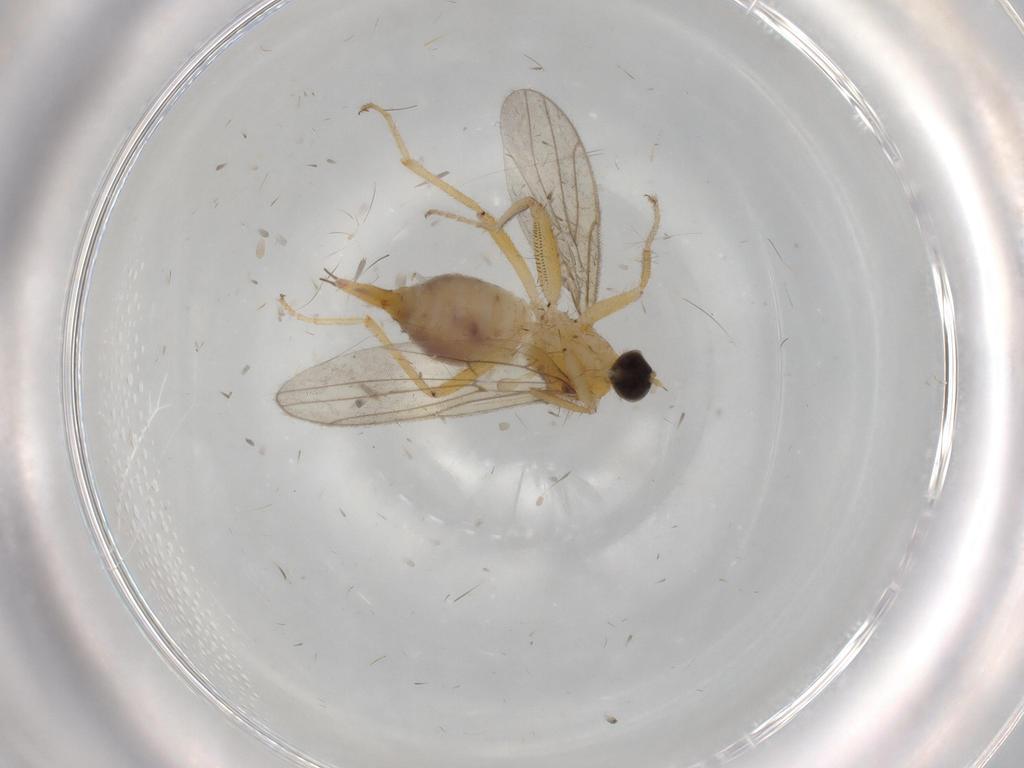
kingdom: Animalia
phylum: Arthropoda
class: Insecta
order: Diptera
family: Hybotidae
